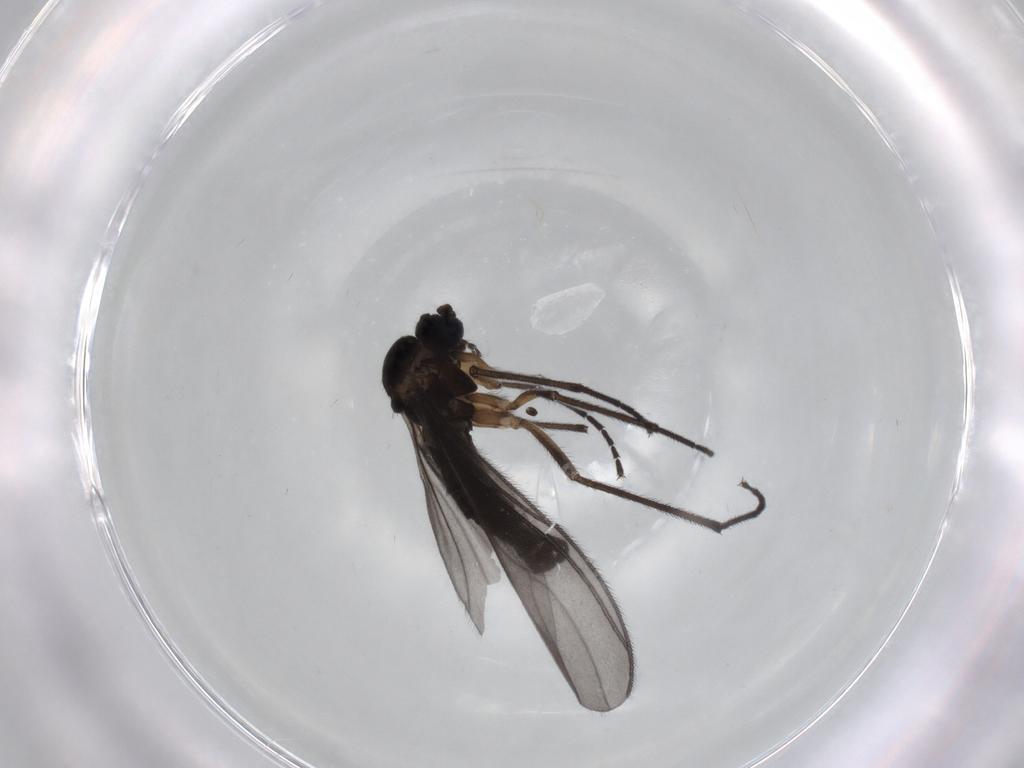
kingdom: Animalia
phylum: Arthropoda
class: Insecta
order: Diptera
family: Sciaridae
